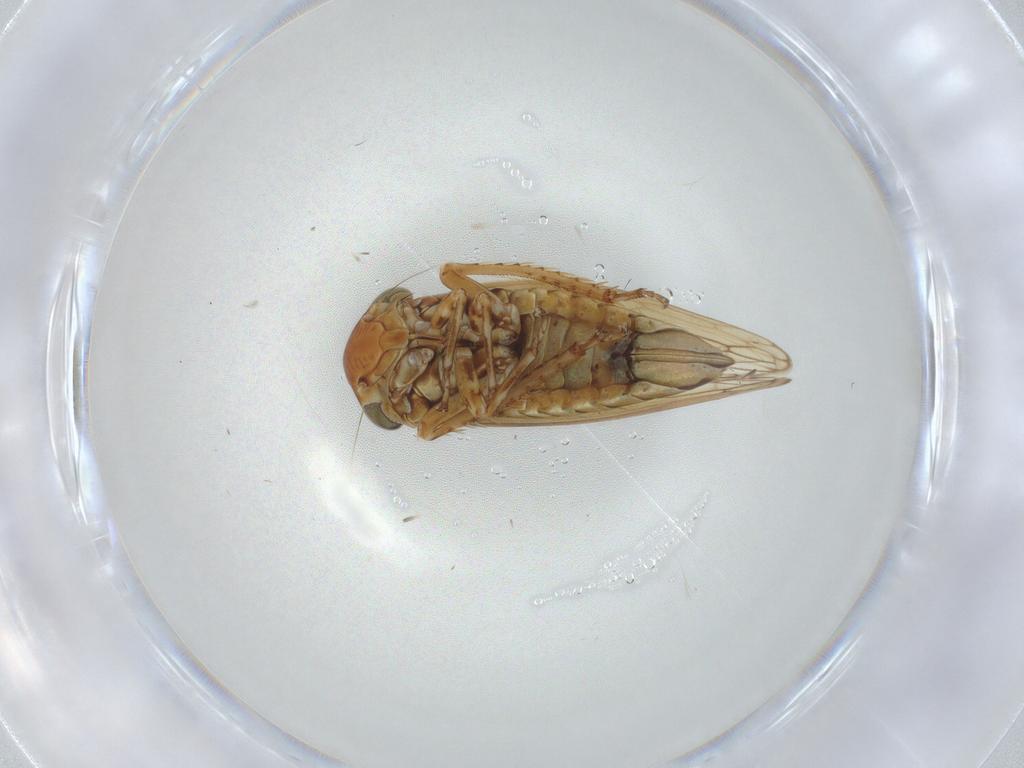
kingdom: Animalia
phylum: Arthropoda
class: Insecta
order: Hemiptera
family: Cicadellidae
